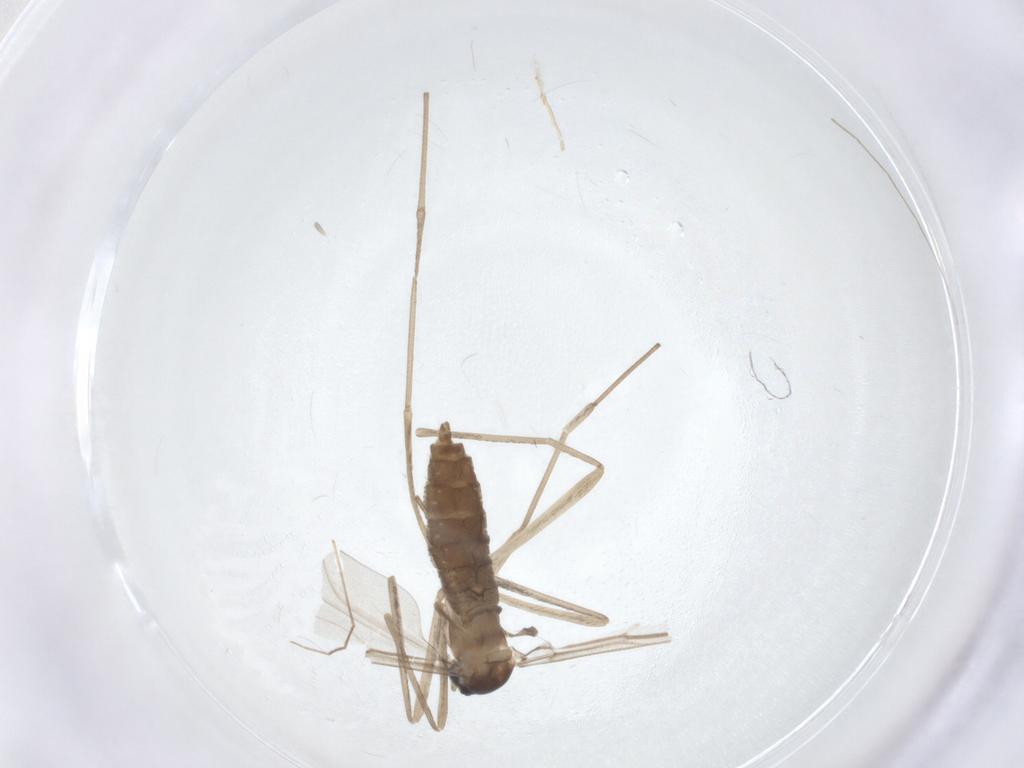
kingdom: Animalia
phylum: Arthropoda
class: Insecta
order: Diptera
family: Cecidomyiidae
